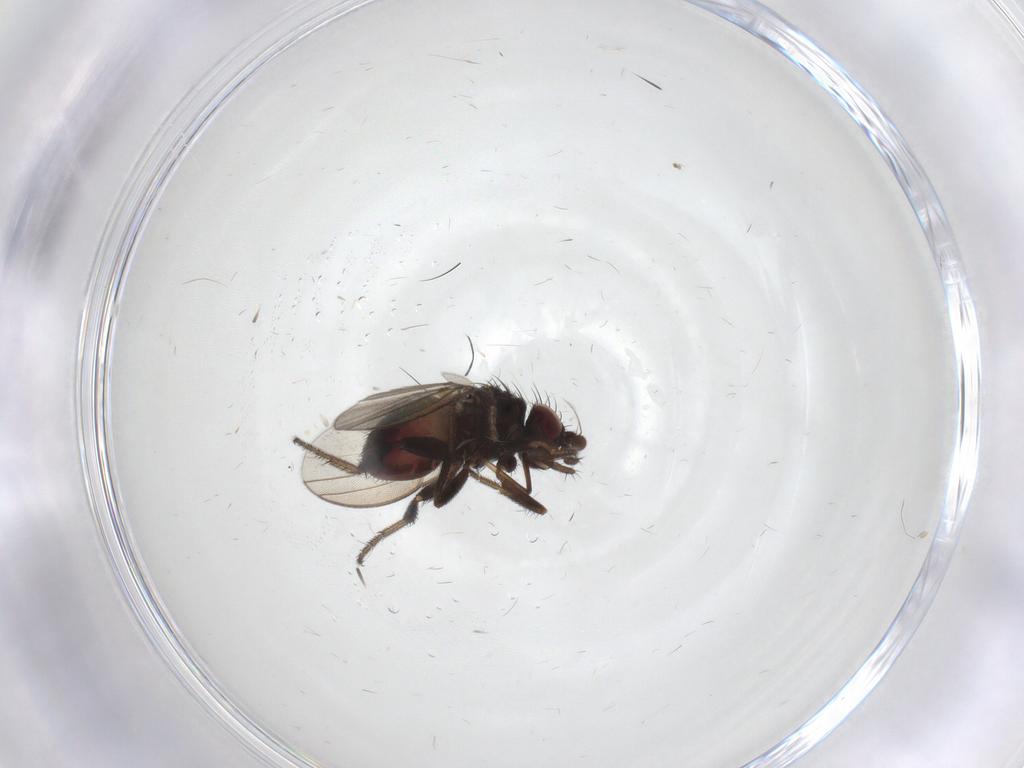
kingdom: Animalia
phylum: Arthropoda
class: Insecta
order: Diptera
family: Milichiidae
